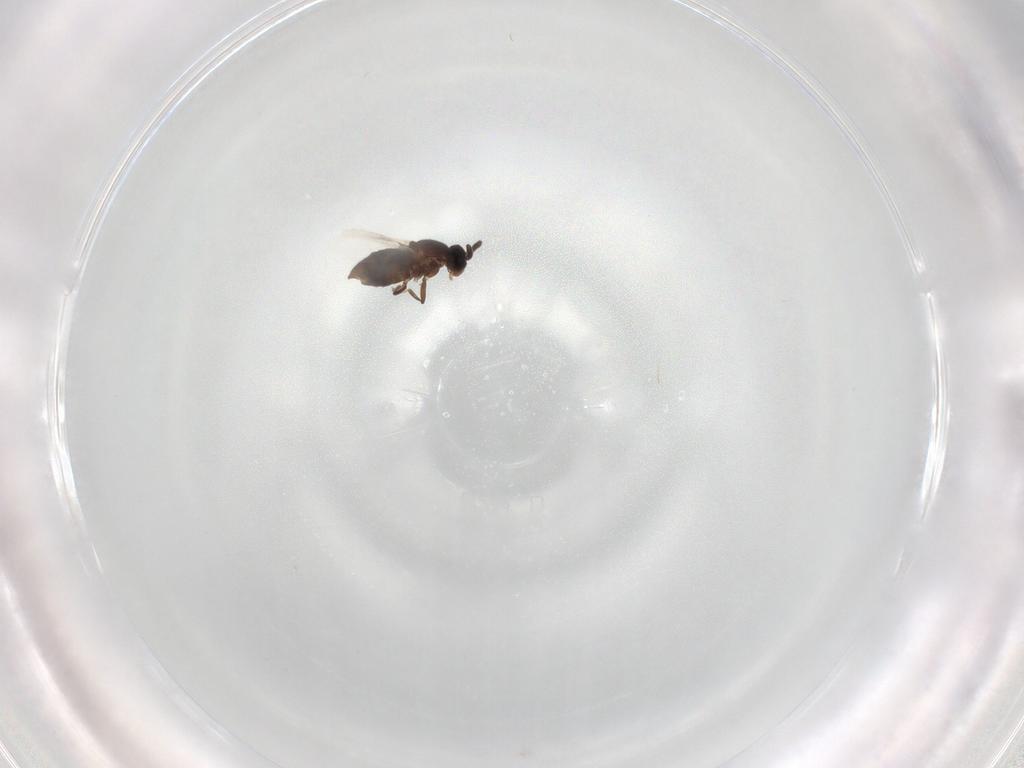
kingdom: Animalia
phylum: Arthropoda
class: Insecta
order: Diptera
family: Scatopsidae
